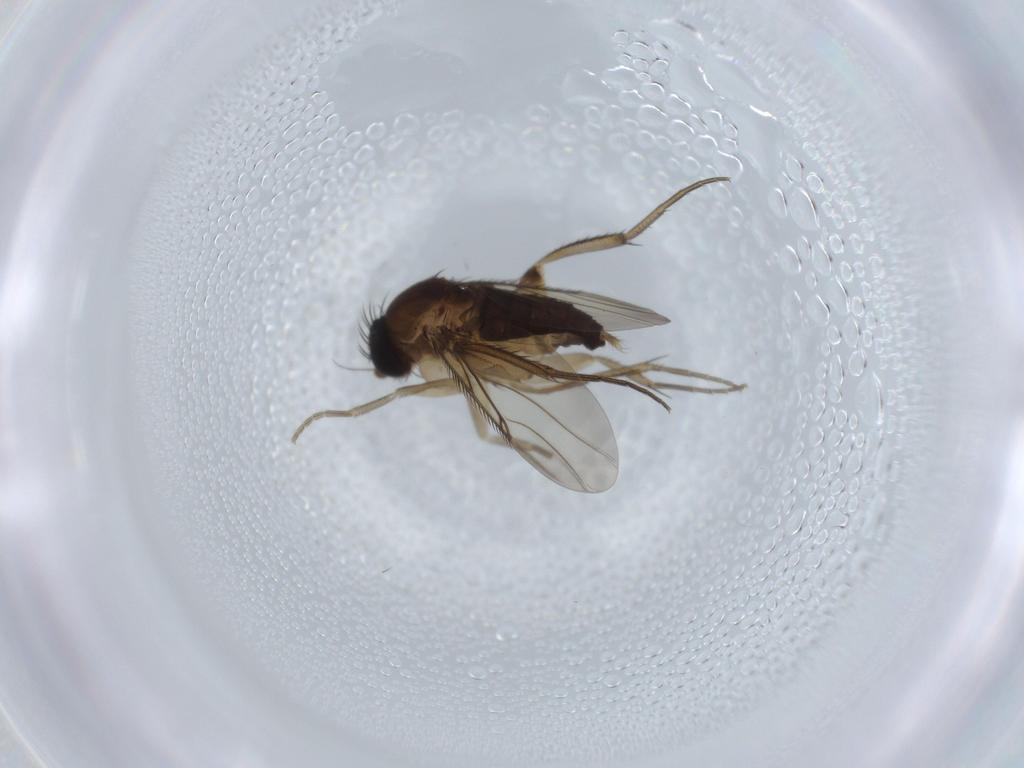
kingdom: Animalia
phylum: Arthropoda
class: Insecta
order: Diptera
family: Phoridae
